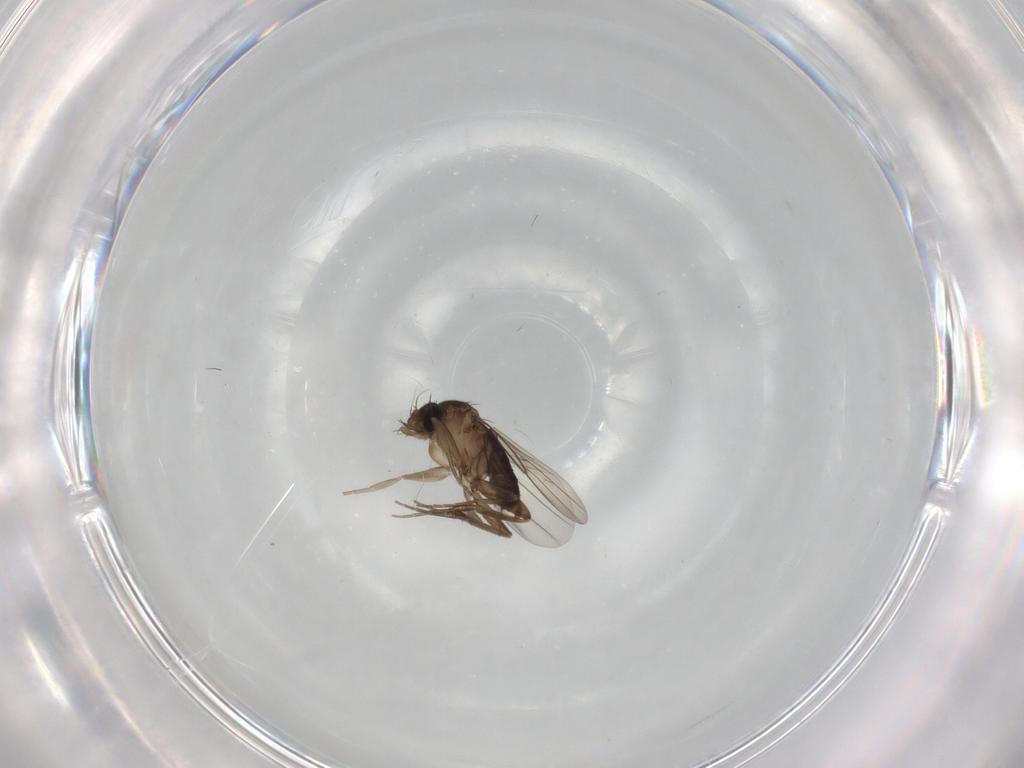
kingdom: Animalia
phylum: Arthropoda
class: Insecta
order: Diptera
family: Phoridae
